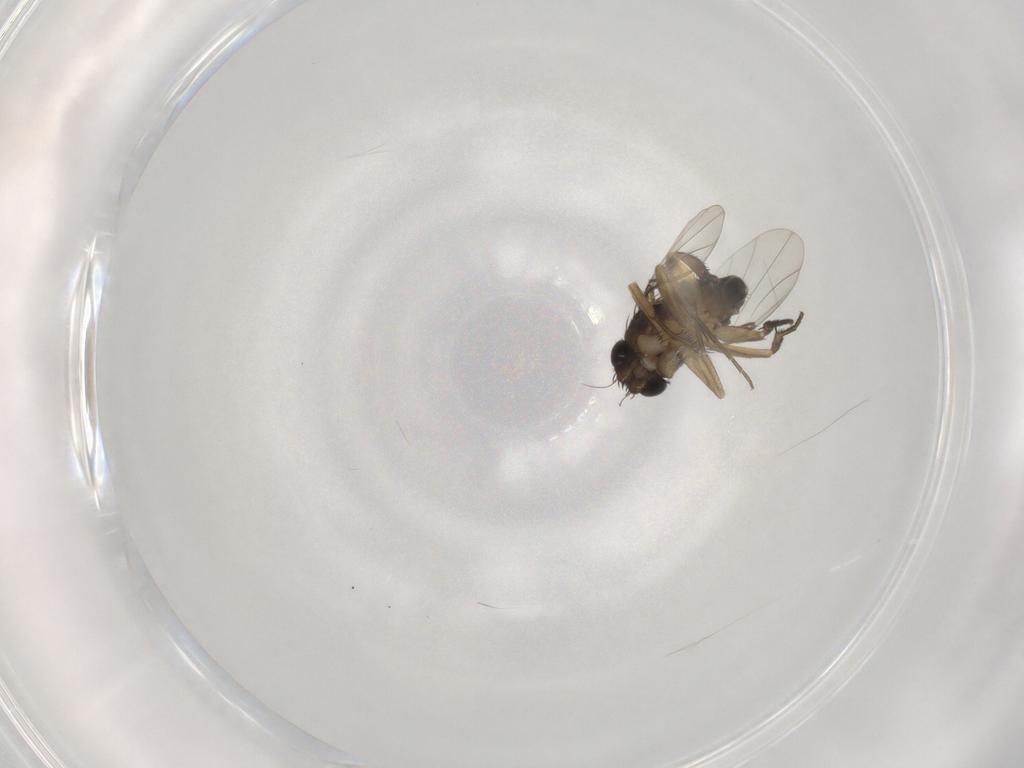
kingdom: Animalia
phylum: Arthropoda
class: Insecta
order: Diptera
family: Phoridae
